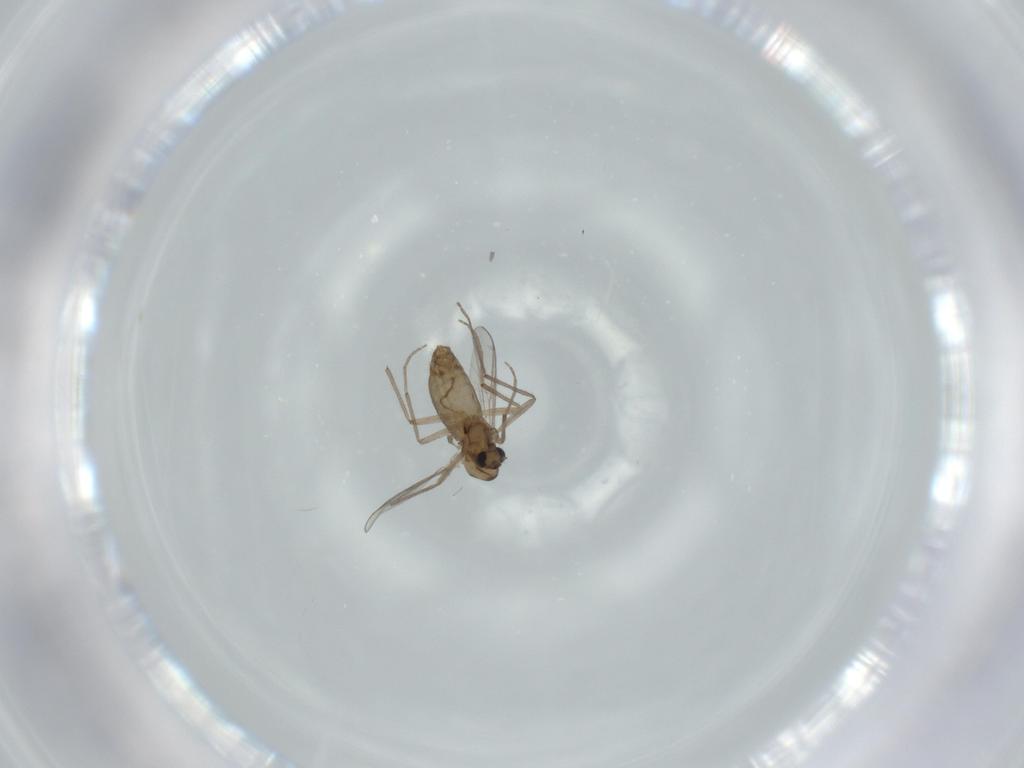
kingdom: Animalia
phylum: Arthropoda
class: Insecta
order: Diptera
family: Chironomidae
